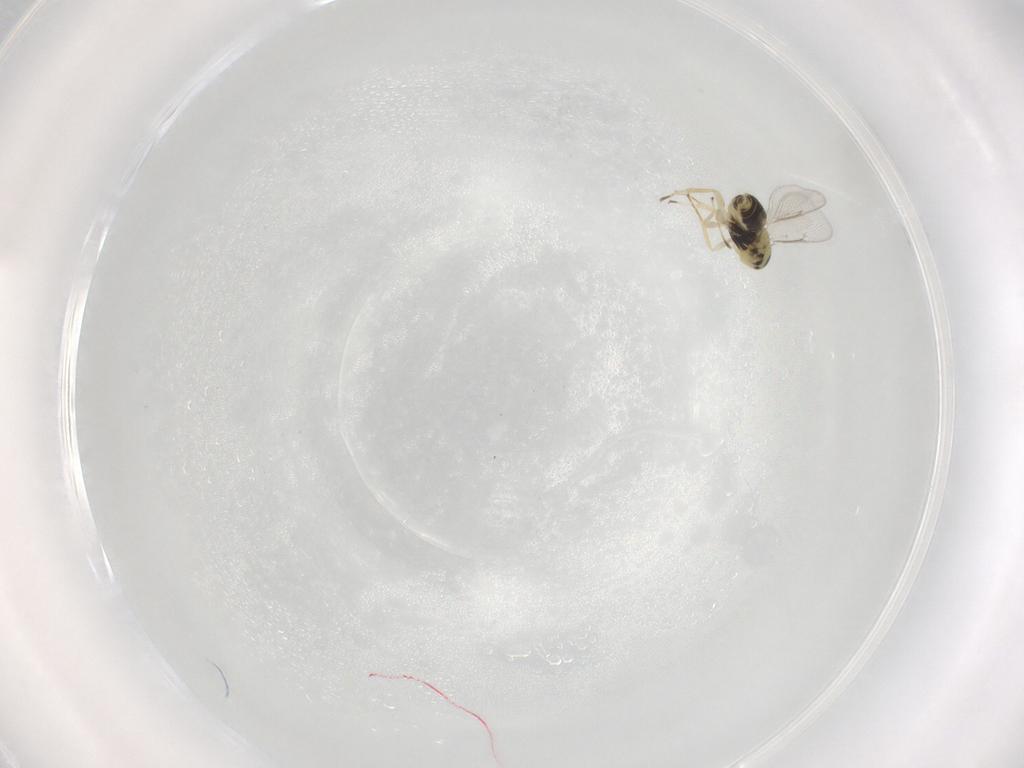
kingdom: Animalia
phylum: Arthropoda
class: Insecta
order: Hymenoptera
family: Eulophidae
